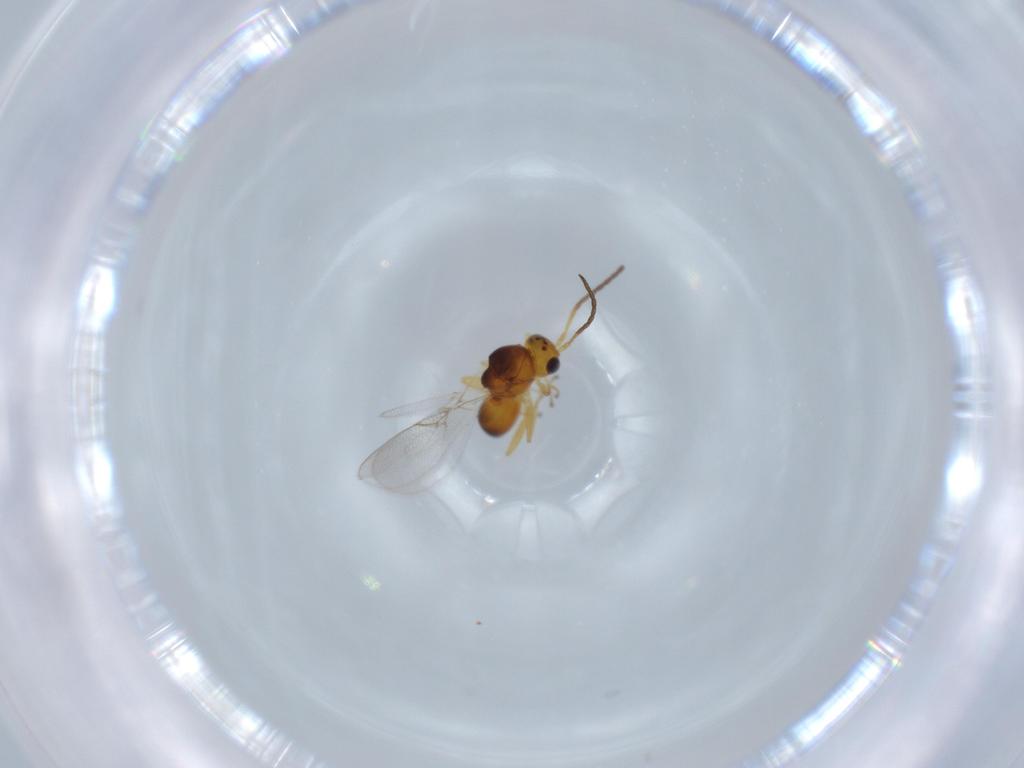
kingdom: Animalia
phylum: Arthropoda
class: Insecta
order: Hymenoptera
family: Figitidae
